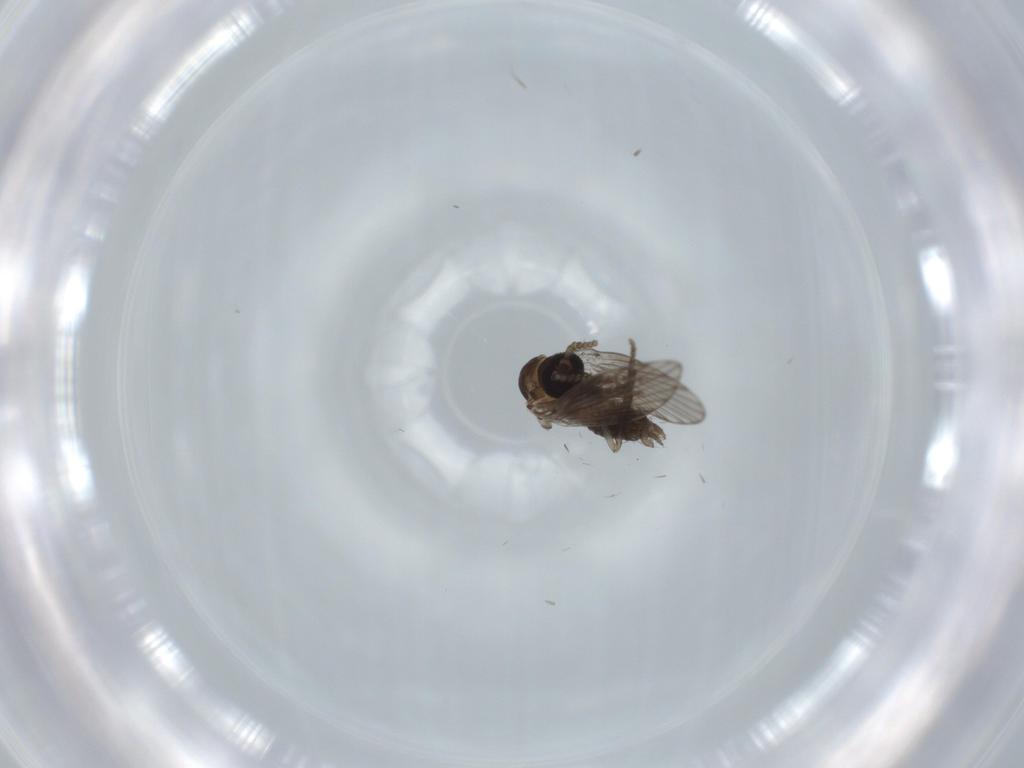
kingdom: Animalia
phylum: Arthropoda
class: Insecta
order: Diptera
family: Psychodidae
